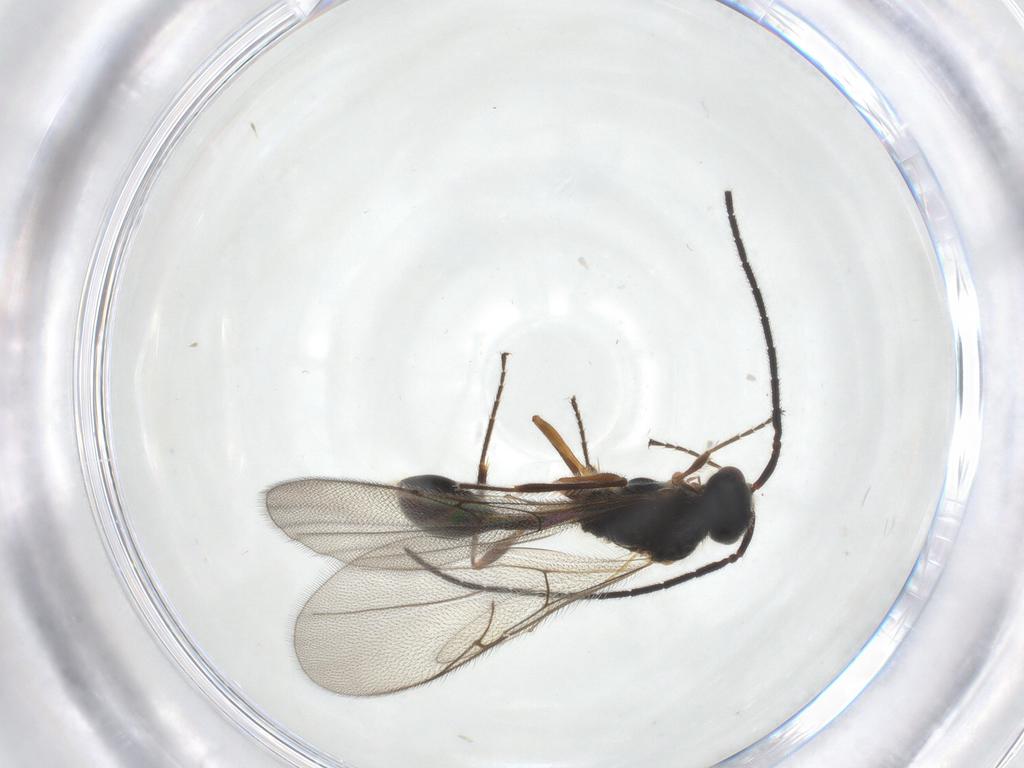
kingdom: Animalia
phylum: Arthropoda
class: Insecta
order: Hymenoptera
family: Diapriidae
